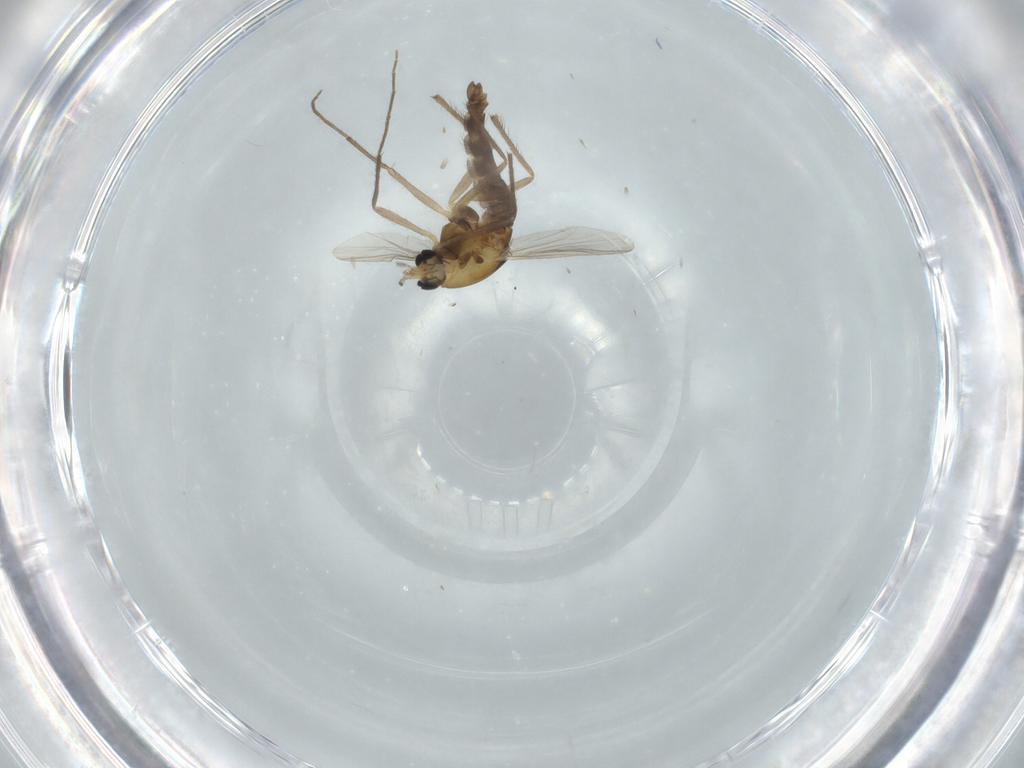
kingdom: Animalia
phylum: Arthropoda
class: Insecta
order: Diptera
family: Chironomidae
